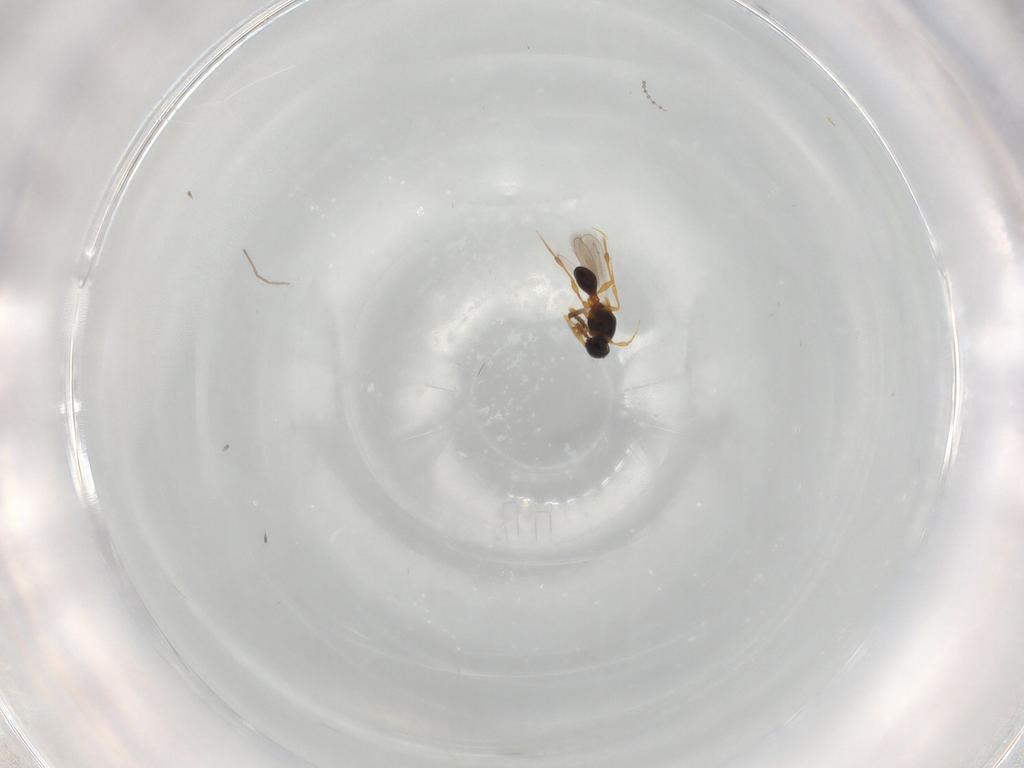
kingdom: Animalia
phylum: Arthropoda
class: Insecta
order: Hymenoptera
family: Platygastridae
